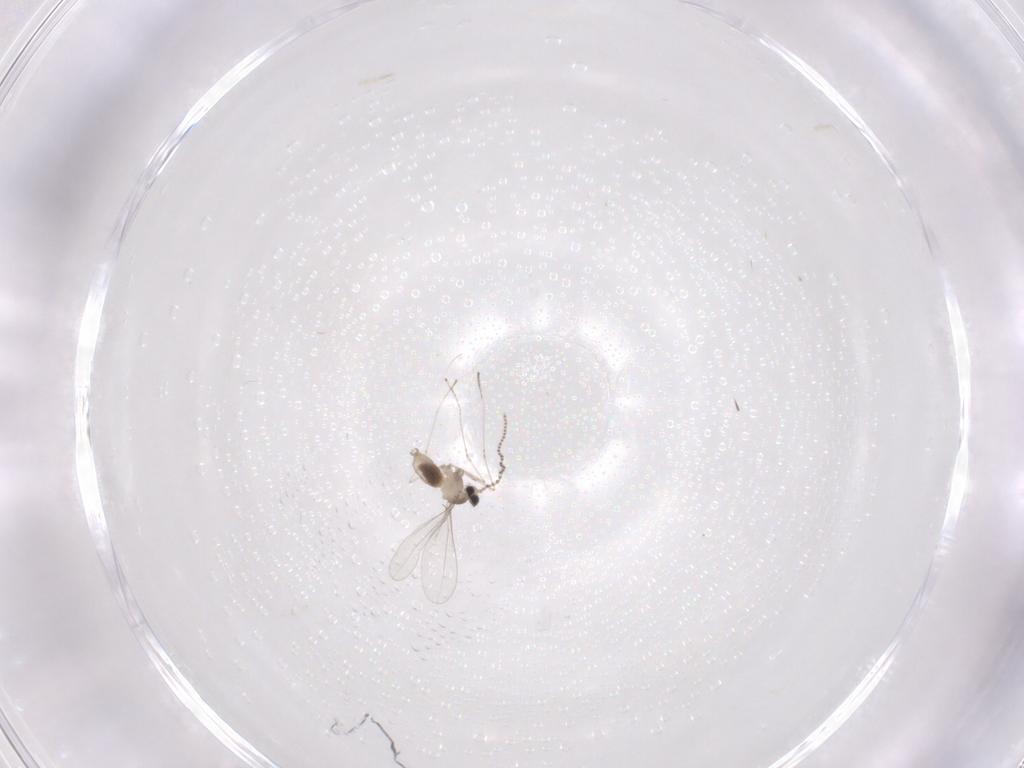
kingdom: Animalia
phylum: Arthropoda
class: Insecta
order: Diptera
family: Cecidomyiidae
